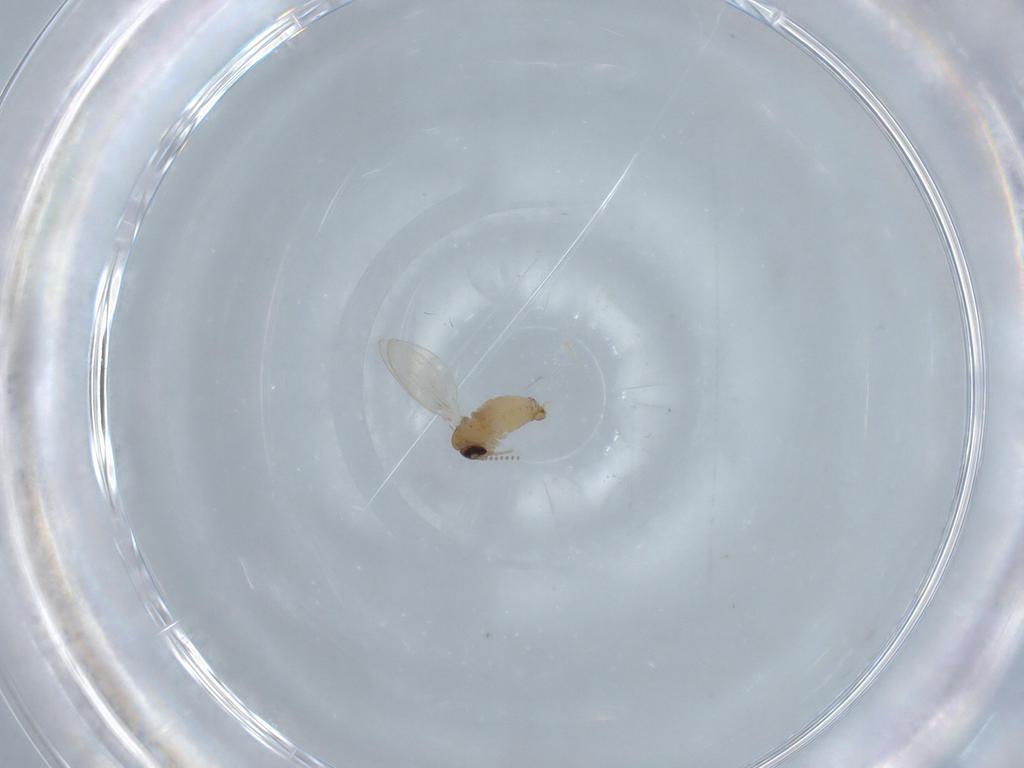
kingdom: Animalia
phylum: Arthropoda
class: Insecta
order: Diptera
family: Psychodidae
